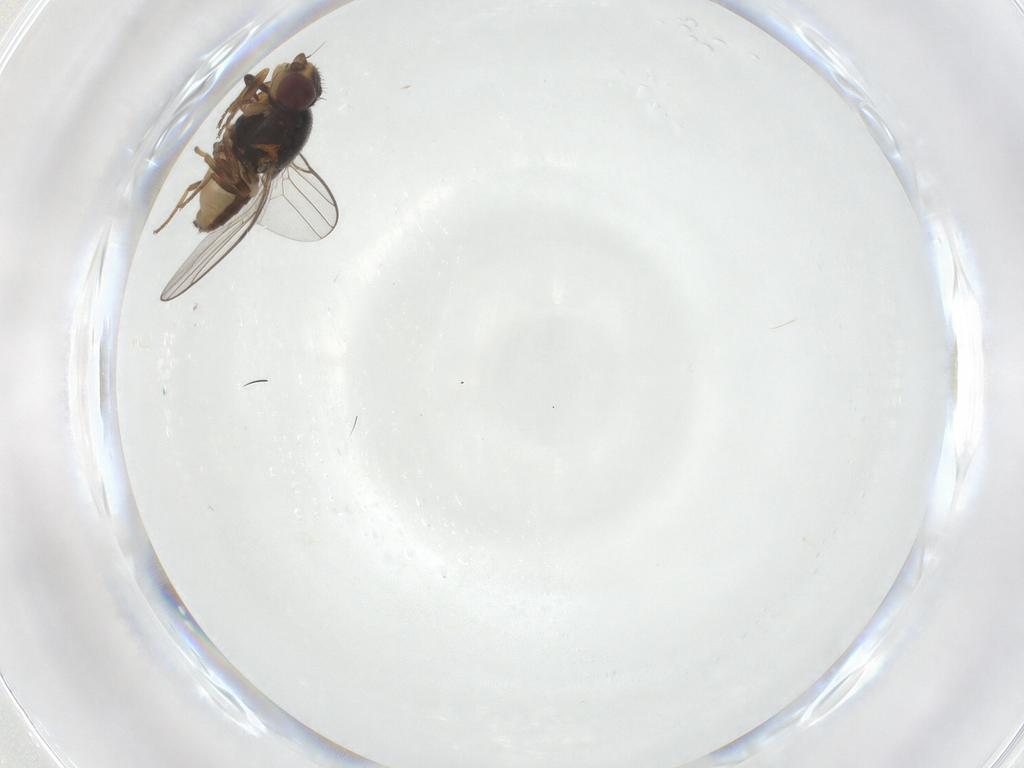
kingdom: Animalia
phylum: Arthropoda
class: Insecta
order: Diptera
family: Chloropidae
